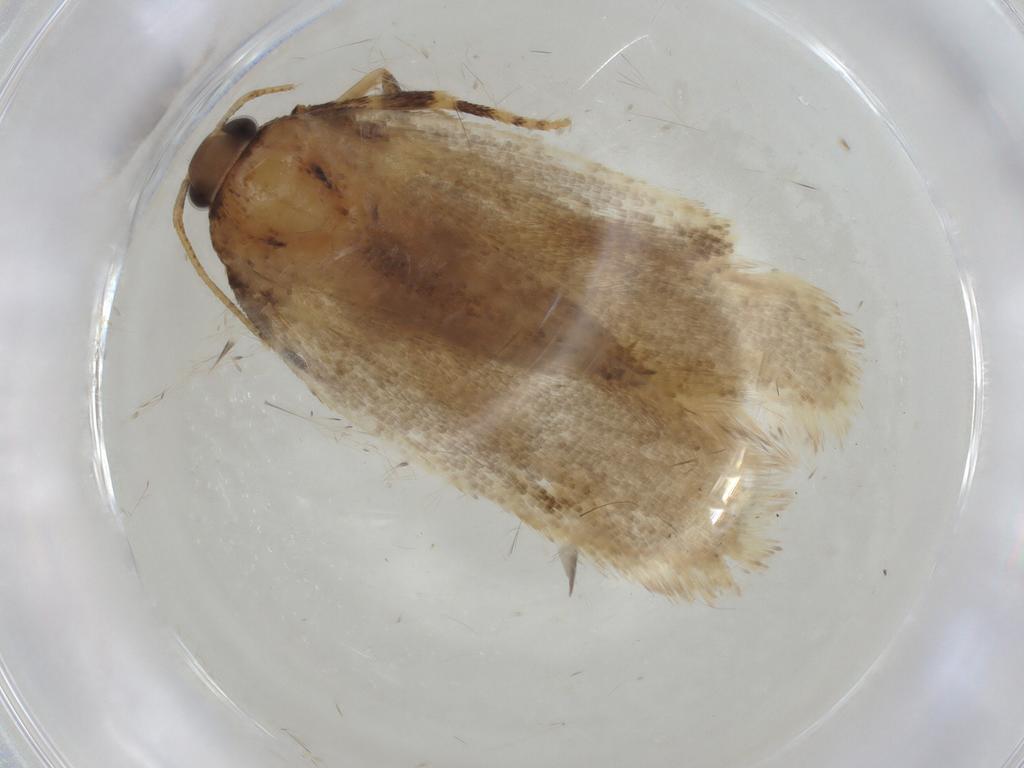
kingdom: Animalia
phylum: Arthropoda
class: Insecta
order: Lepidoptera
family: Gelechiidae
